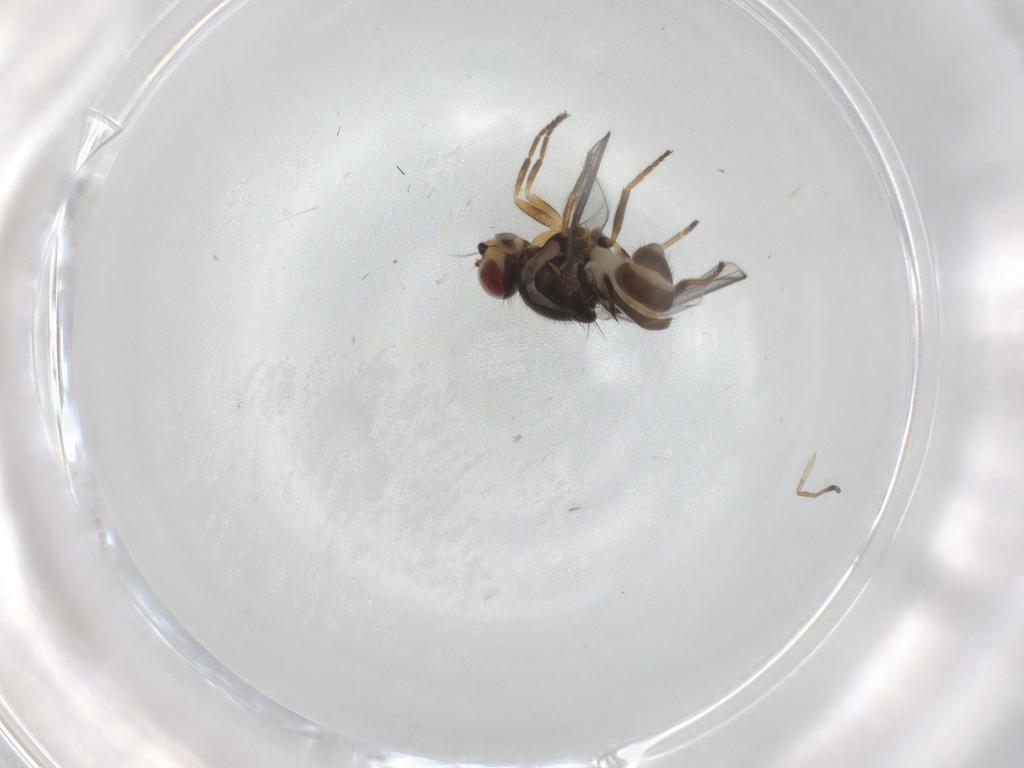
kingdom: Animalia
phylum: Arthropoda
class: Insecta
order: Diptera
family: Chloropidae
